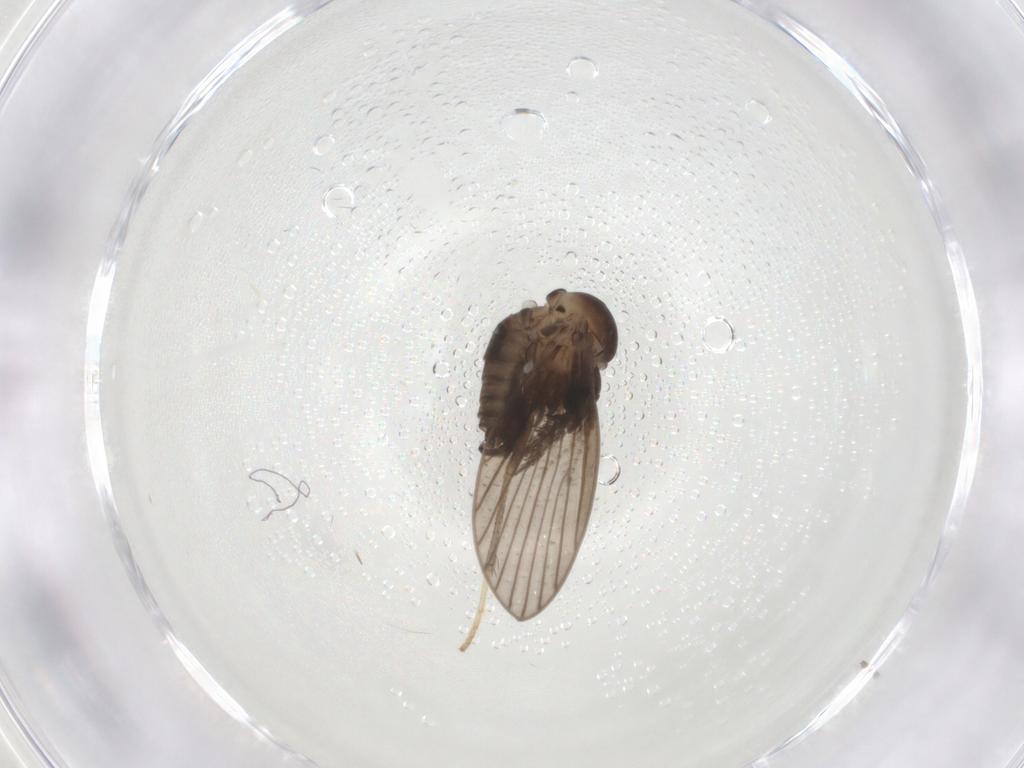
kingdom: Animalia
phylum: Arthropoda
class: Insecta
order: Diptera
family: Psychodidae
